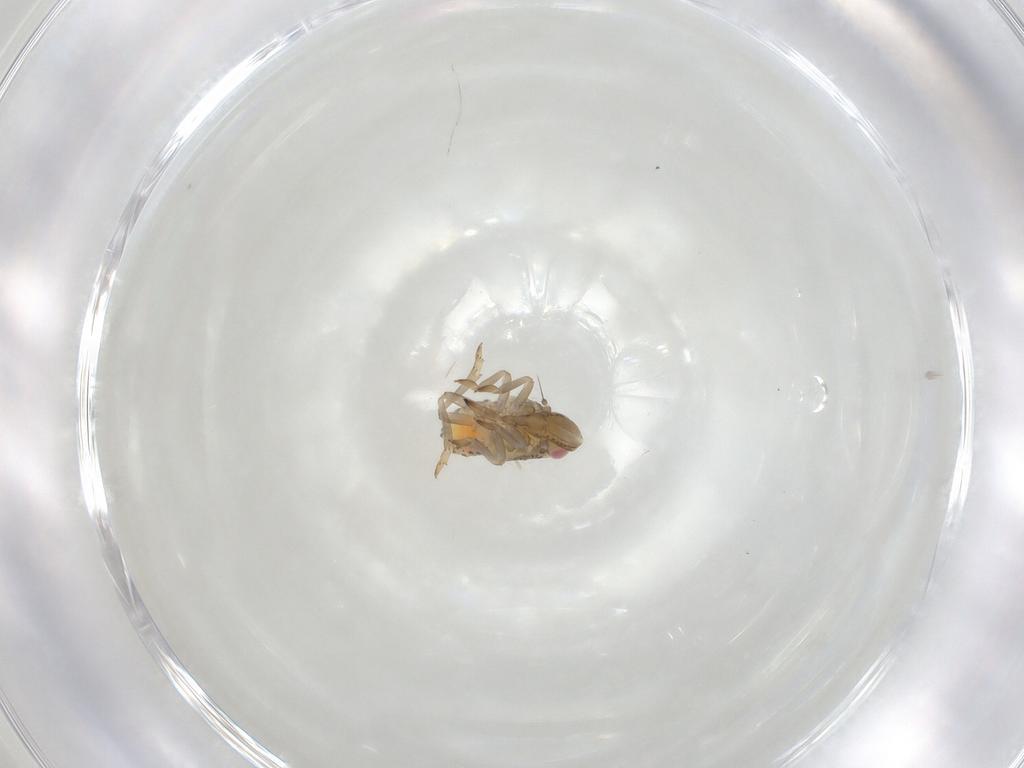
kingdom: Animalia
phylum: Arthropoda
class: Insecta
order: Hemiptera
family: Tropiduchidae
